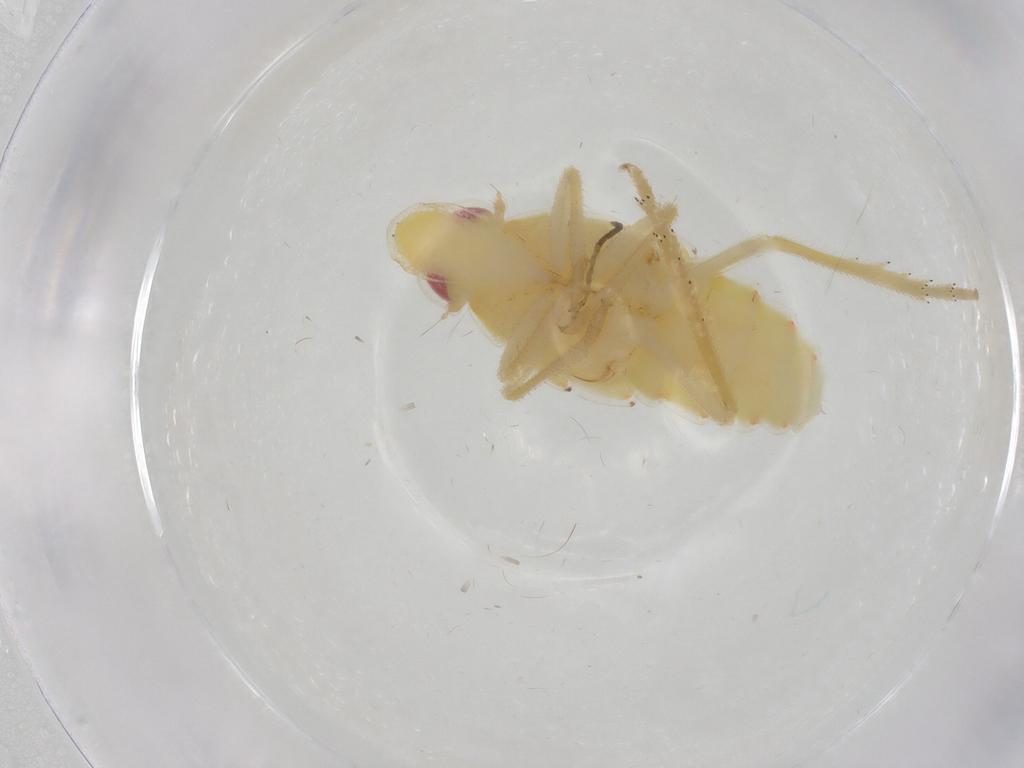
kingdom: Animalia
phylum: Arthropoda
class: Insecta
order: Hemiptera
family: Tropiduchidae
